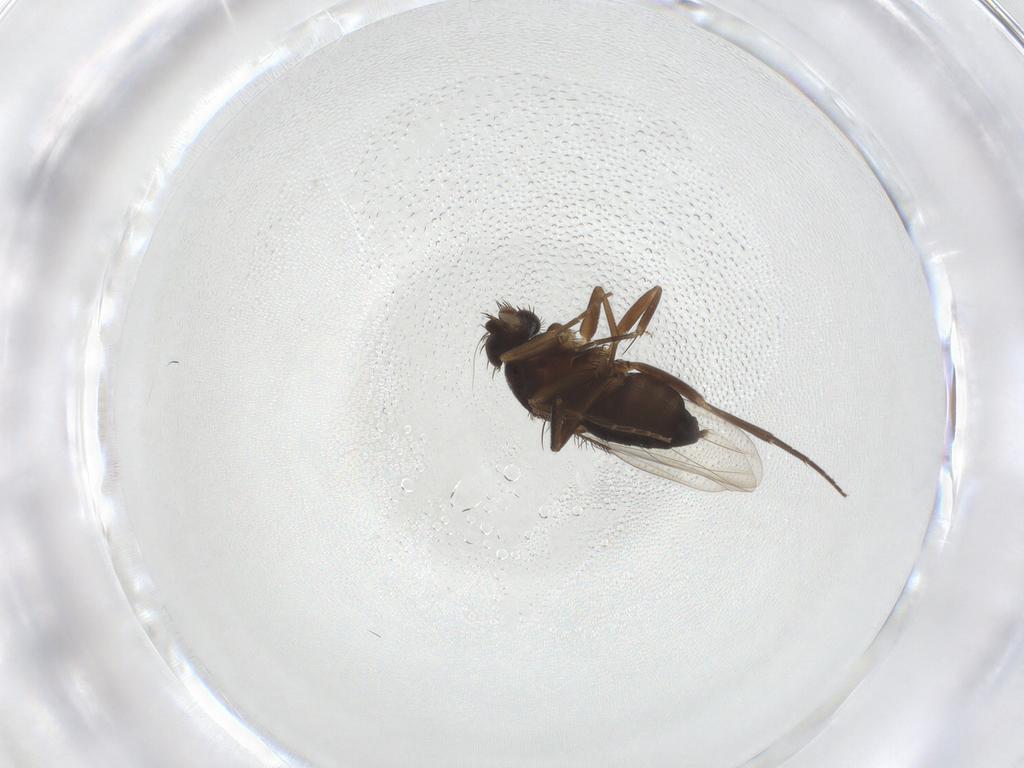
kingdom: Animalia
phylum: Arthropoda
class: Insecta
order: Diptera
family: Phoridae
